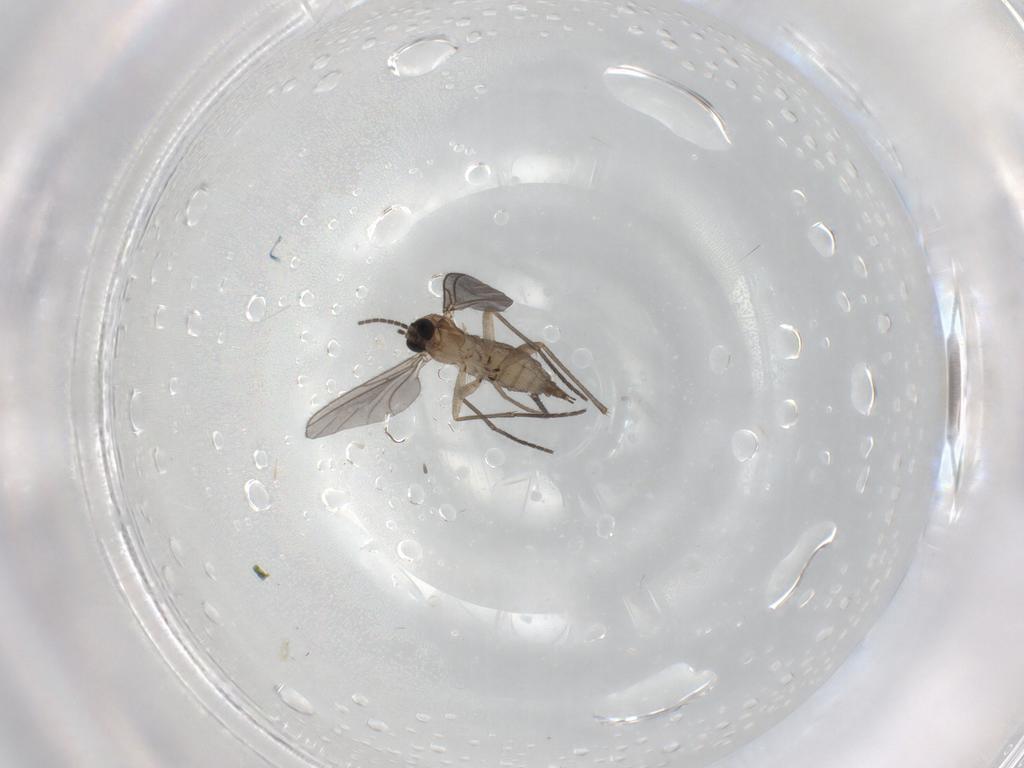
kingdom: Animalia
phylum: Arthropoda
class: Insecta
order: Diptera
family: Sciaridae
